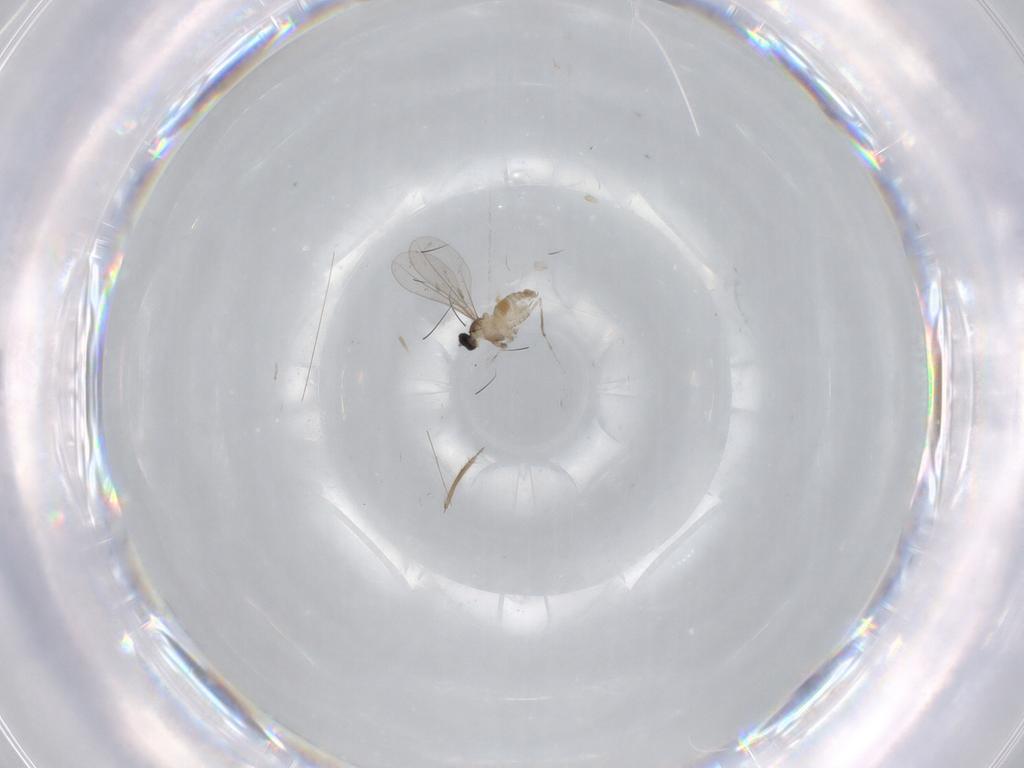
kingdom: Animalia
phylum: Arthropoda
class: Insecta
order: Diptera
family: Cecidomyiidae
